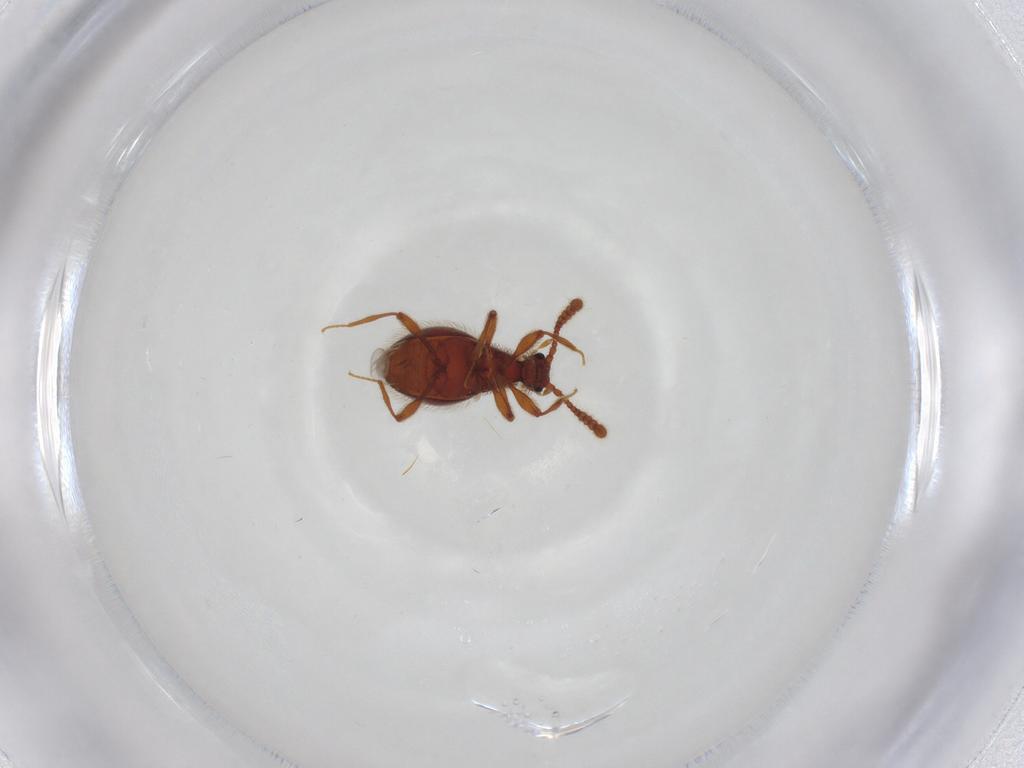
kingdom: Animalia
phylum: Arthropoda
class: Insecta
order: Coleoptera
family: Staphylinidae
